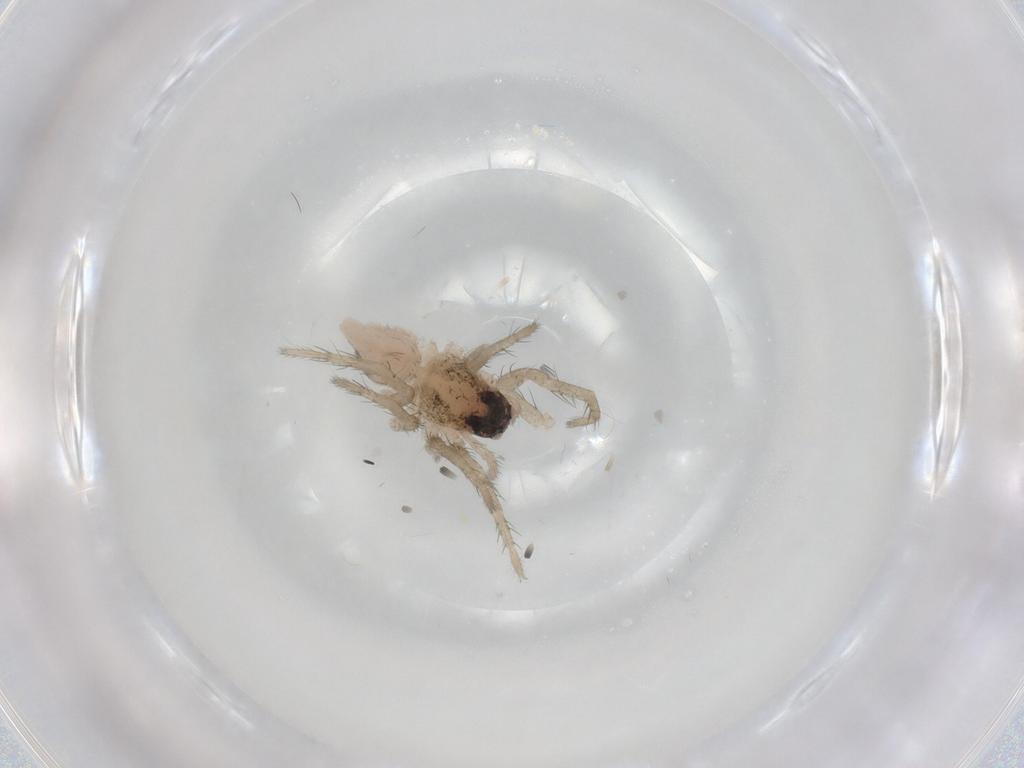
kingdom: Animalia
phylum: Arthropoda
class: Arachnida
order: Araneae
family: Lycosidae
